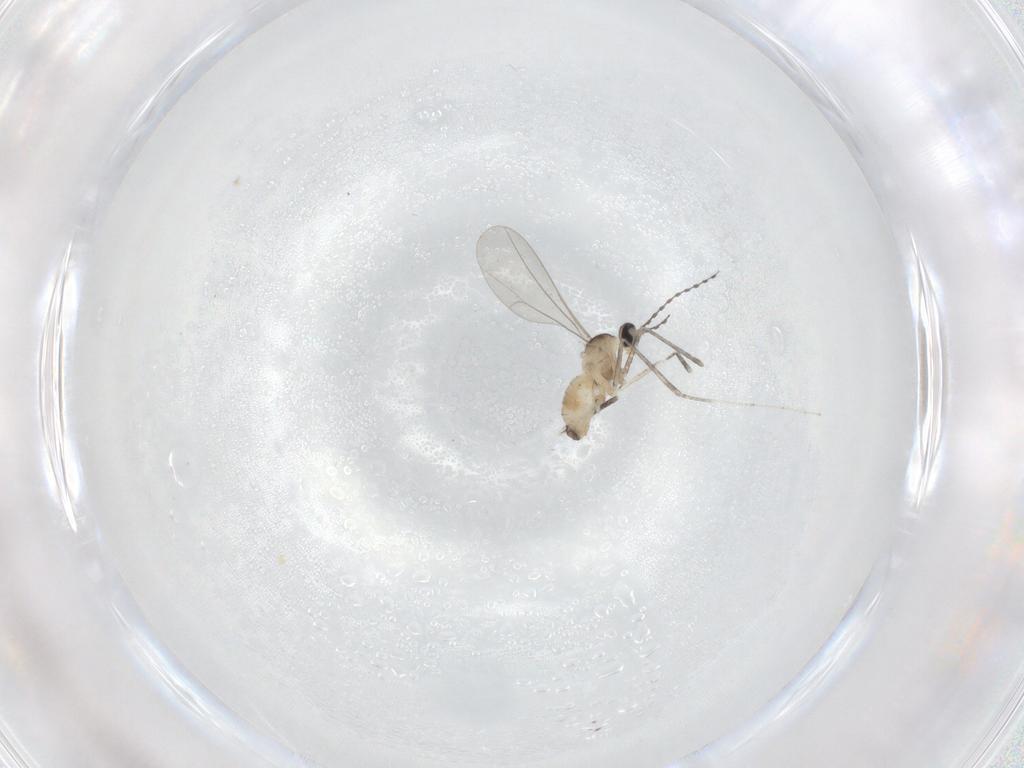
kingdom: Animalia
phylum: Arthropoda
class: Insecta
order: Diptera
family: Cecidomyiidae
